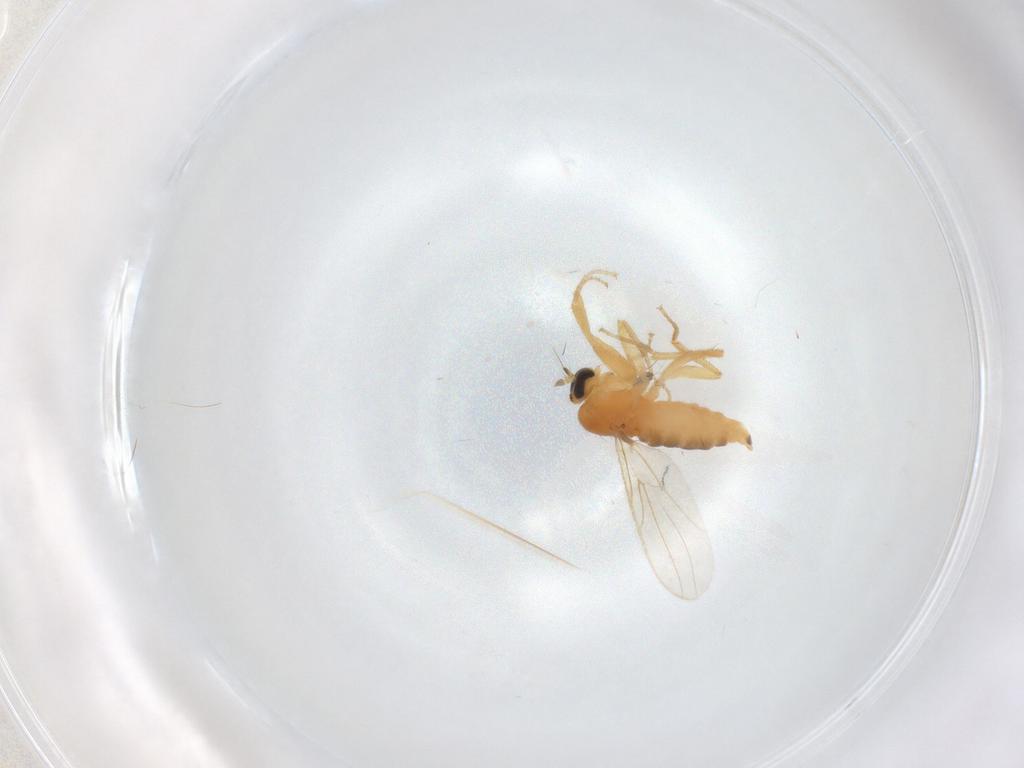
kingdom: Animalia
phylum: Arthropoda
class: Insecta
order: Diptera
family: Hybotidae
